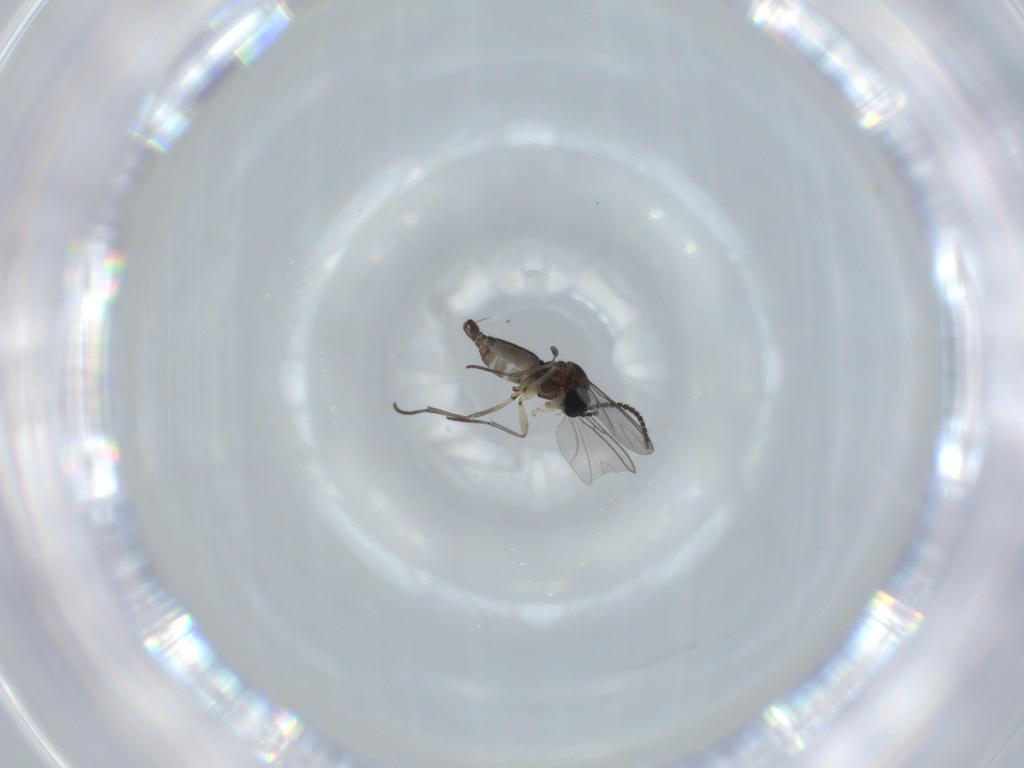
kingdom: Animalia
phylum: Arthropoda
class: Insecta
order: Diptera
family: Sciaridae
